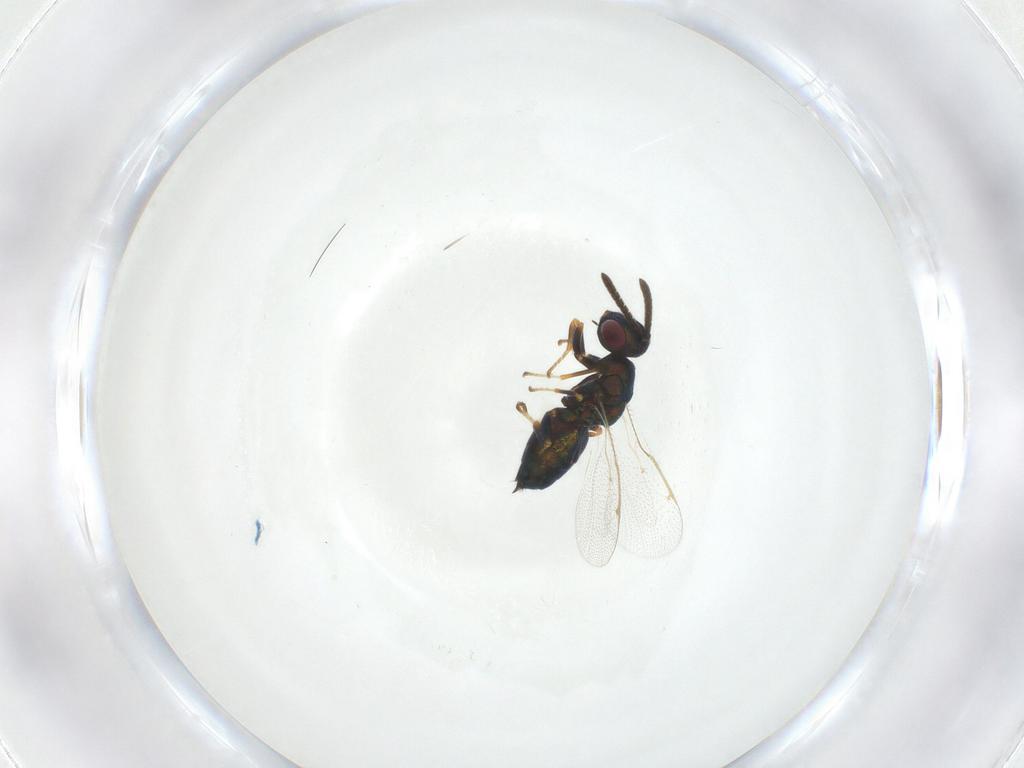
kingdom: Animalia
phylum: Arthropoda
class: Insecta
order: Hymenoptera
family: Torymidae
